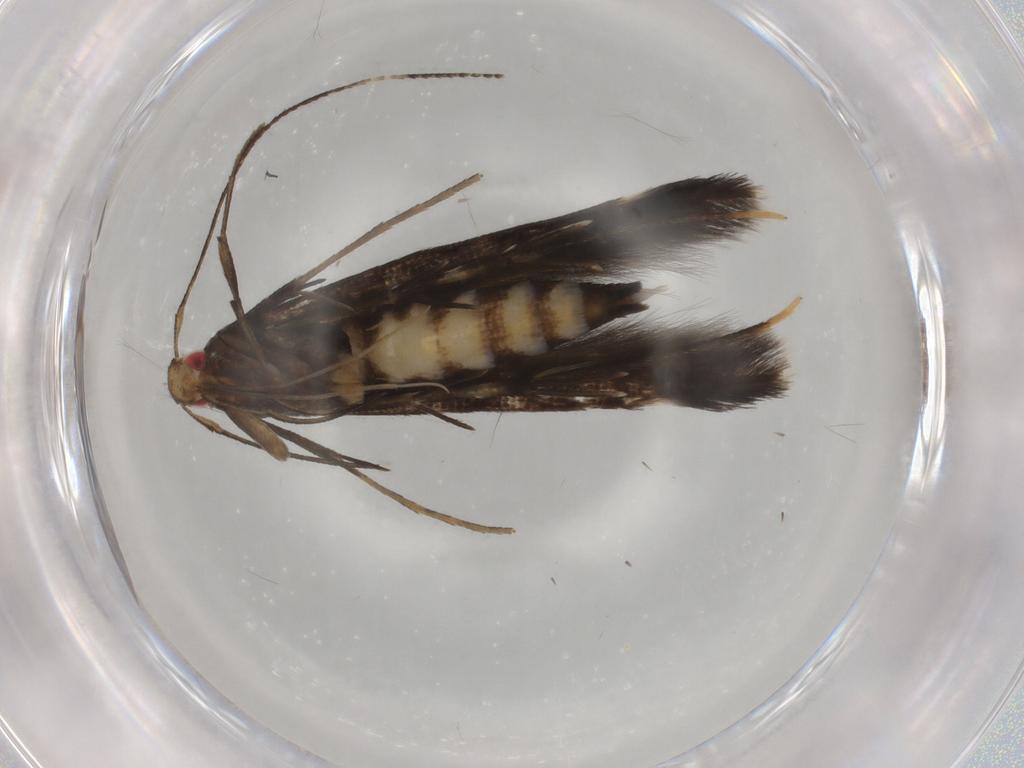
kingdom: Animalia
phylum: Arthropoda
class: Insecta
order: Lepidoptera
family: Cosmopterigidae
